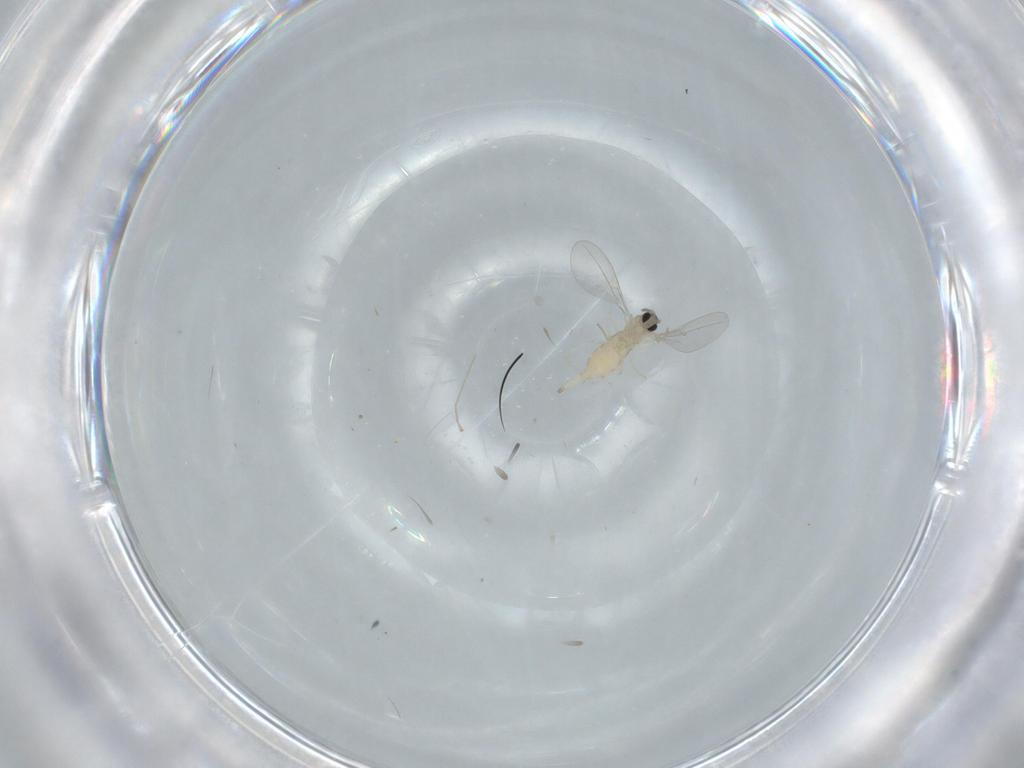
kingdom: Animalia
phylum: Arthropoda
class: Insecta
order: Diptera
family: Cecidomyiidae
